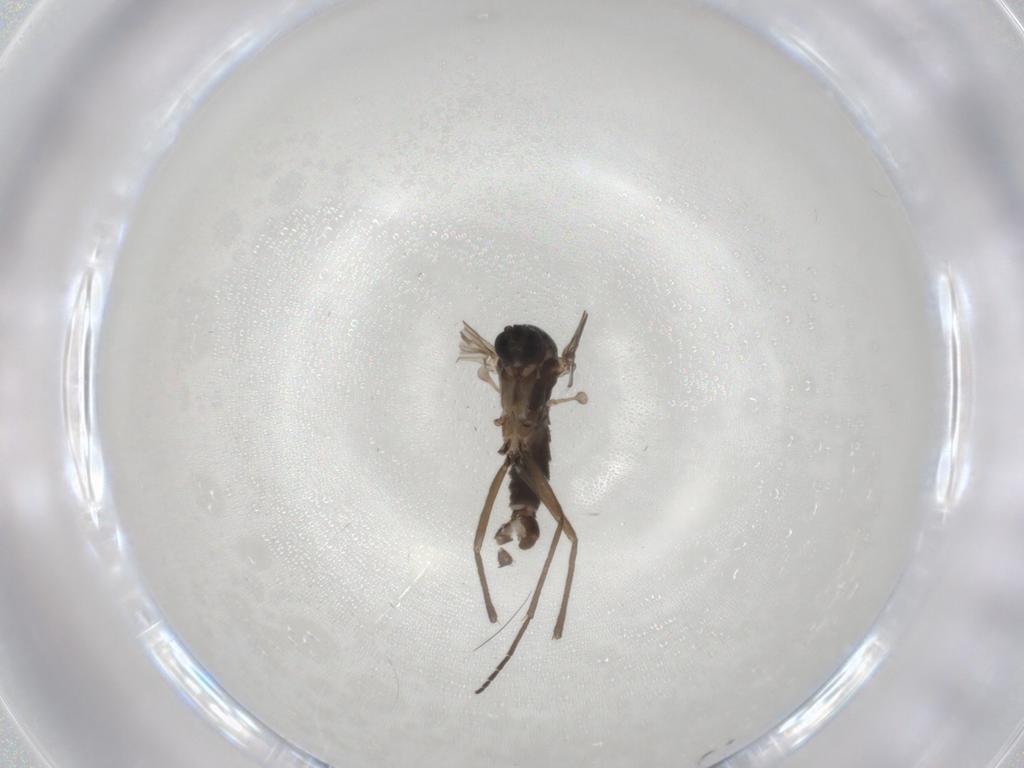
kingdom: Animalia
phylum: Arthropoda
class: Insecta
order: Diptera
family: Sciaridae
